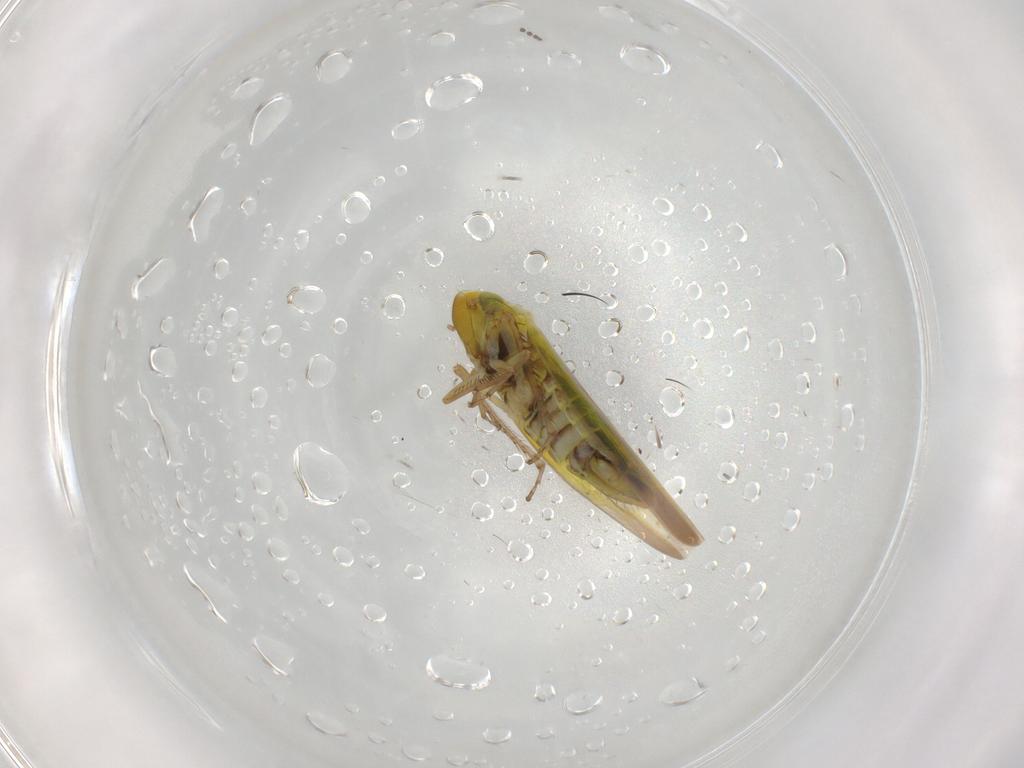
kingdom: Animalia
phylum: Arthropoda
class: Insecta
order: Hemiptera
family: Cicadellidae
